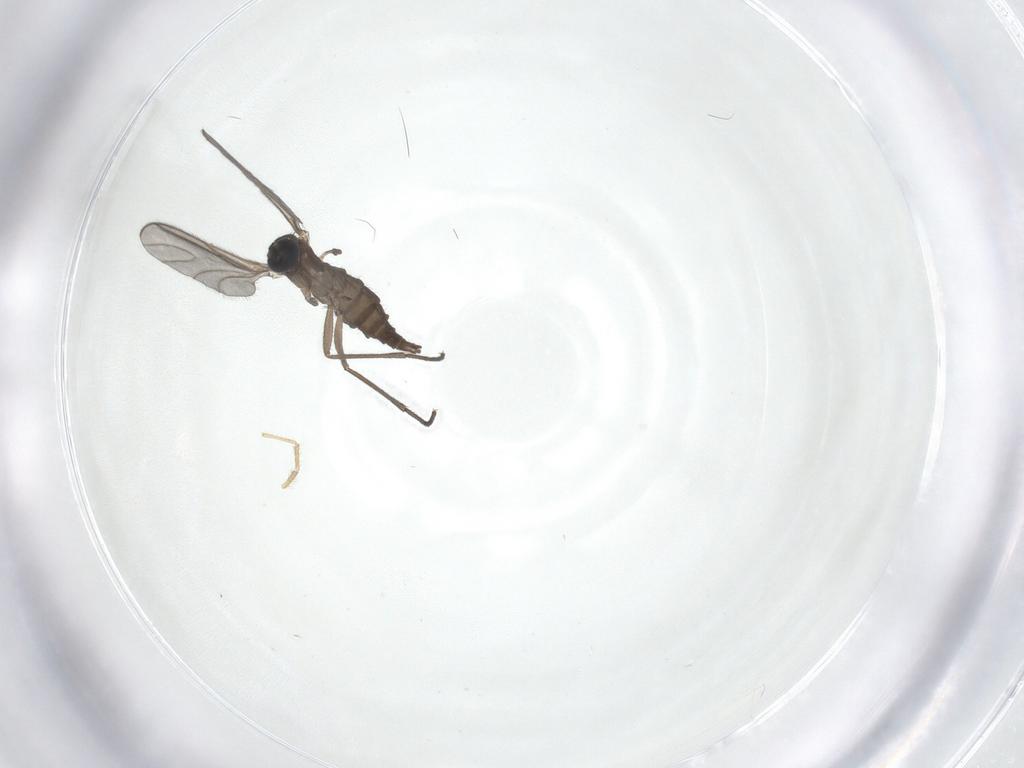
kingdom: Animalia
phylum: Arthropoda
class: Insecta
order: Diptera
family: Sciaridae
